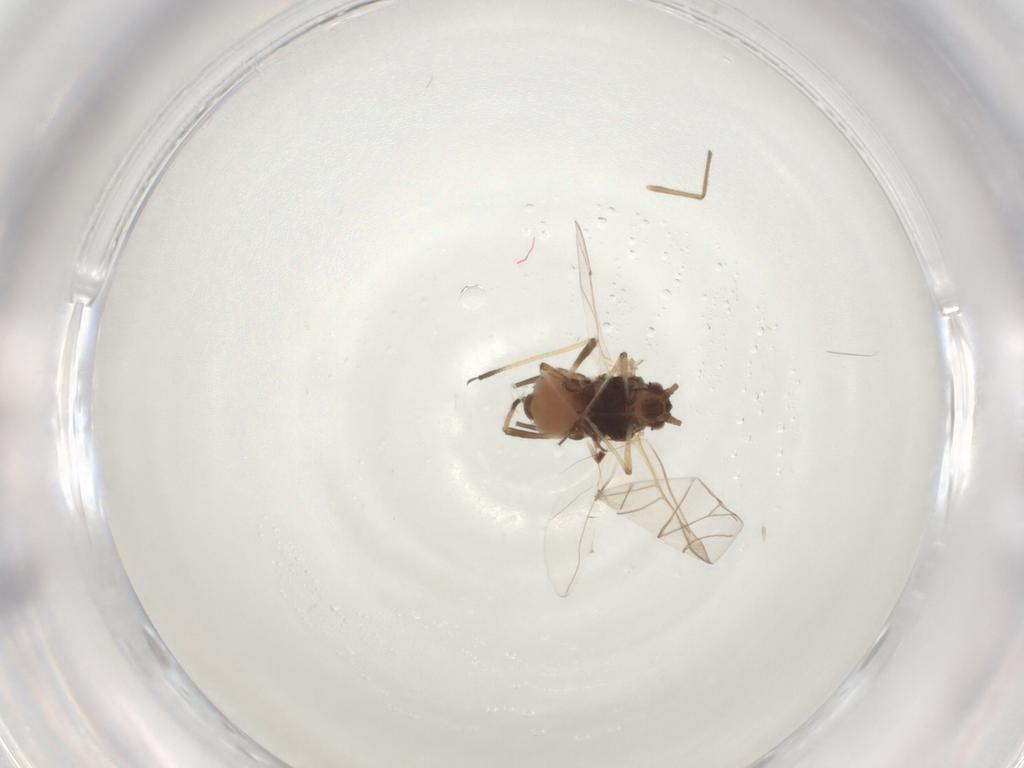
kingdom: Animalia
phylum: Arthropoda
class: Insecta
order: Hemiptera
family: Aphididae
